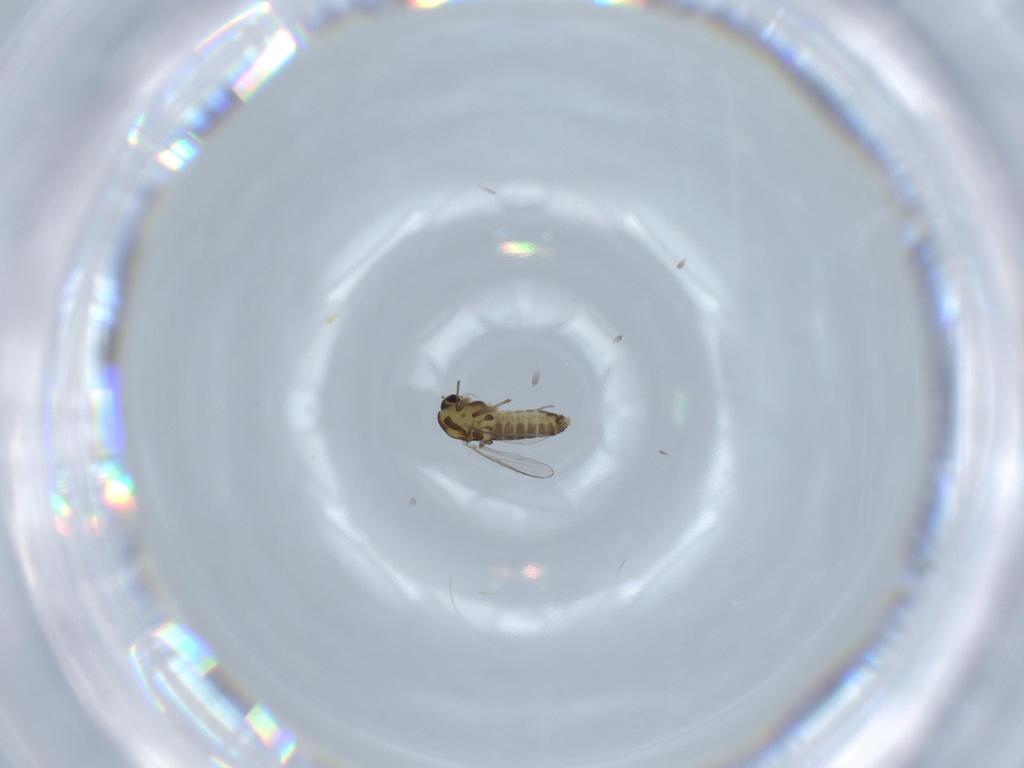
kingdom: Animalia
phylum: Arthropoda
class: Insecta
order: Diptera
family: Chironomidae
